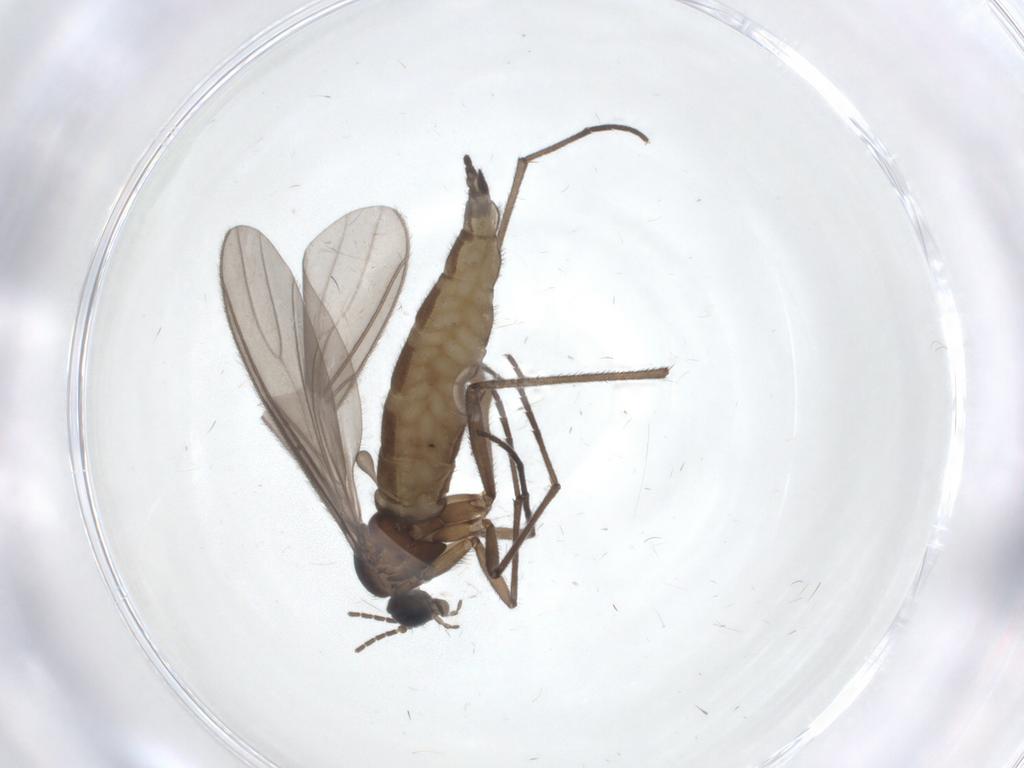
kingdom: Animalia
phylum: Arthropoda
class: Insecta
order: Diptera
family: Sciaridae
